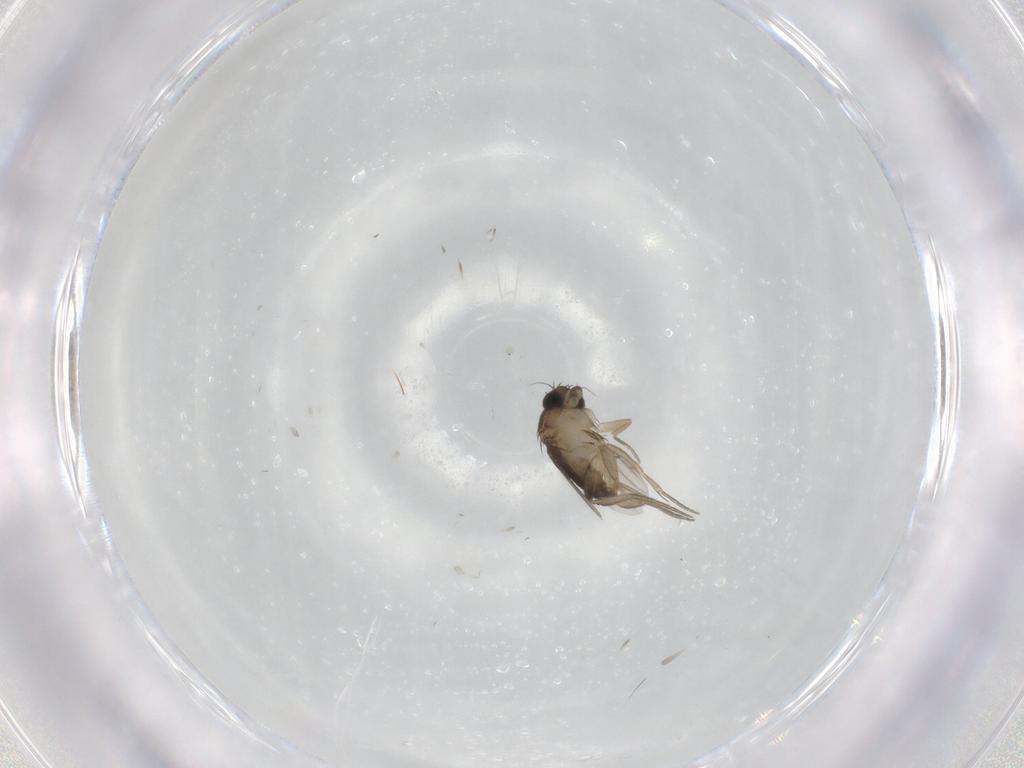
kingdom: Animalia
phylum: Arthropoda
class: Insecta
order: Diptera
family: Phoridae
